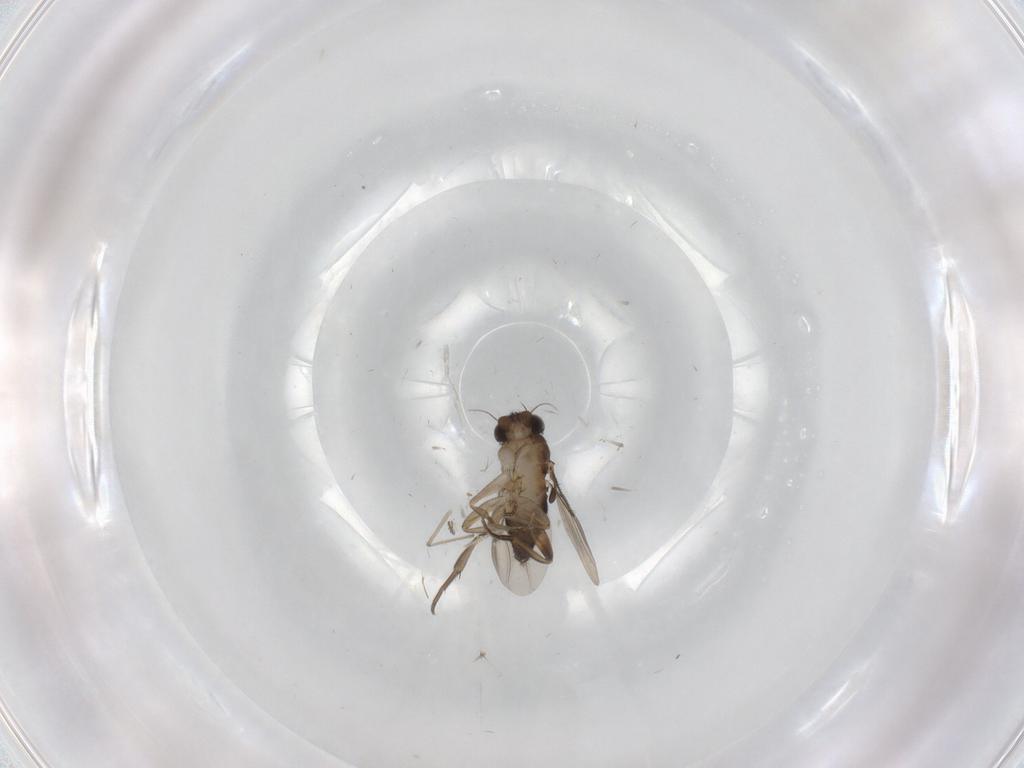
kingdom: Animalia
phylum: Arthropoda
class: Insecta
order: Diptera
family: Phoridae
